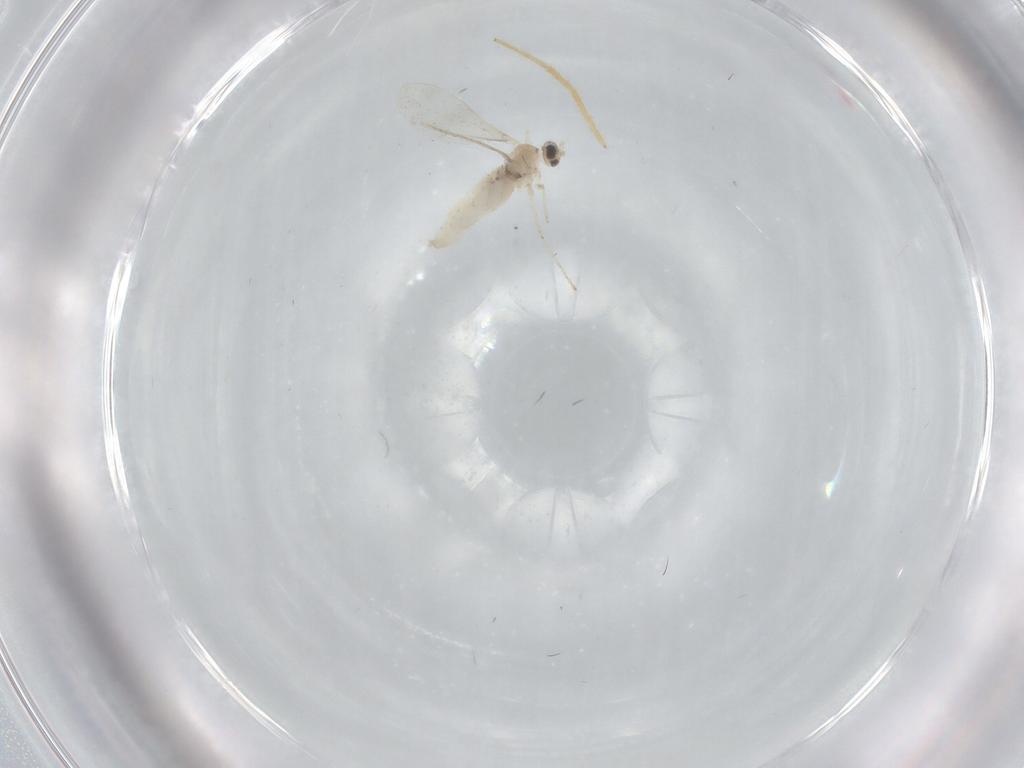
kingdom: Animalia
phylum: Arthropoda
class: Insecta
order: Diptera
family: Cecidomyiidae
